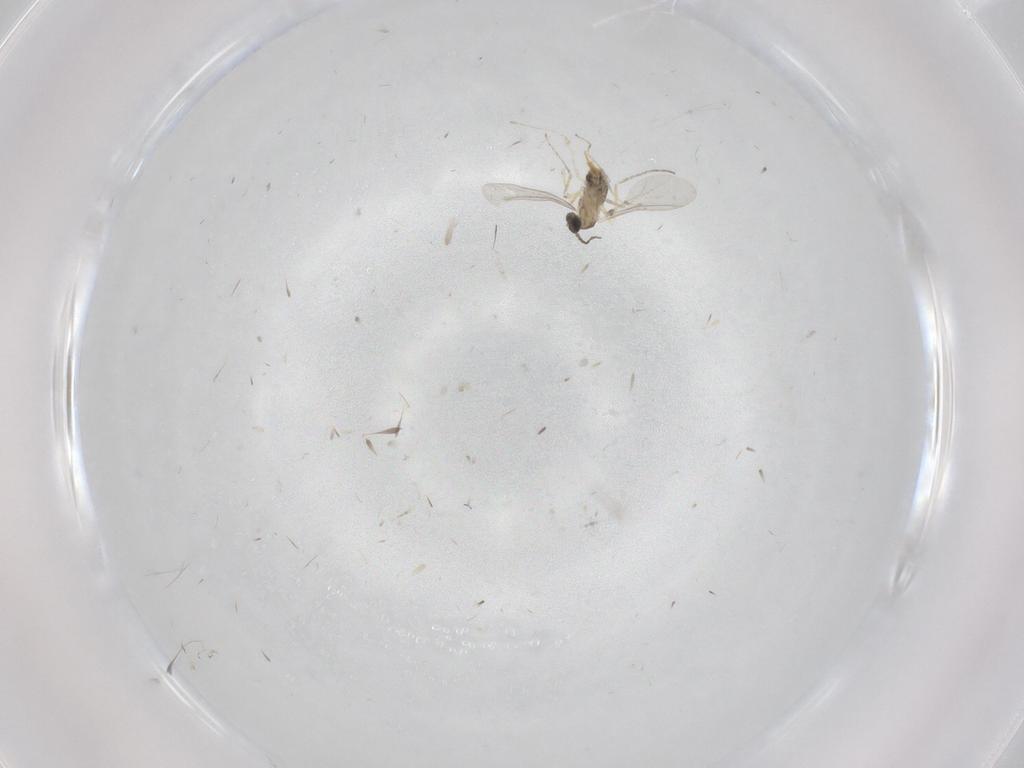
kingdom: Animalia
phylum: Arthropoda
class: Insecta
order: Diptera
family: Cecidomyiidae
